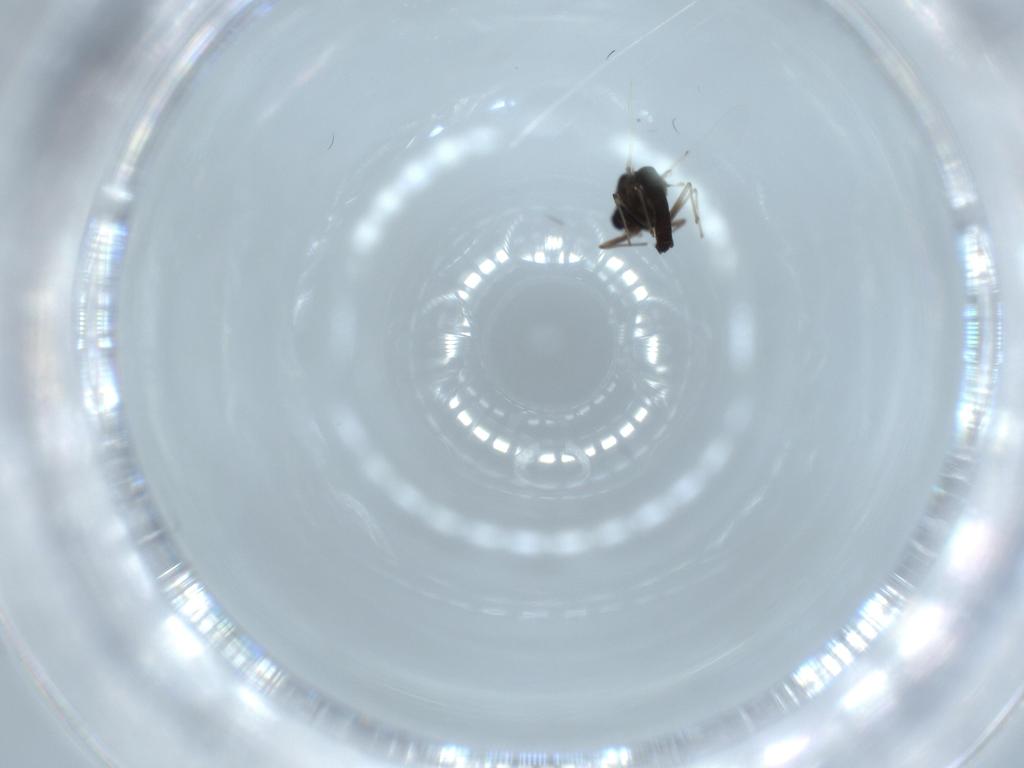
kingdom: Animalia
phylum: Arthropoda
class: Insecta
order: Diptera
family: Chironomidae
